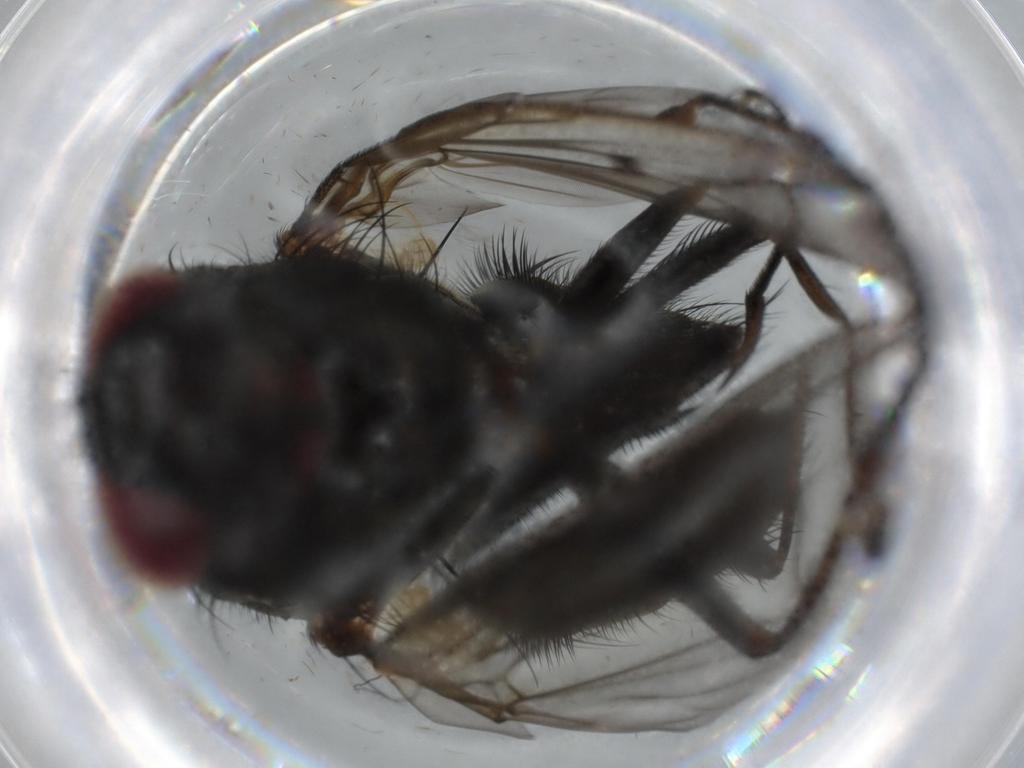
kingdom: Animalia
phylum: Arthropoda
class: Insecta
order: Diptera
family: Muscidae
